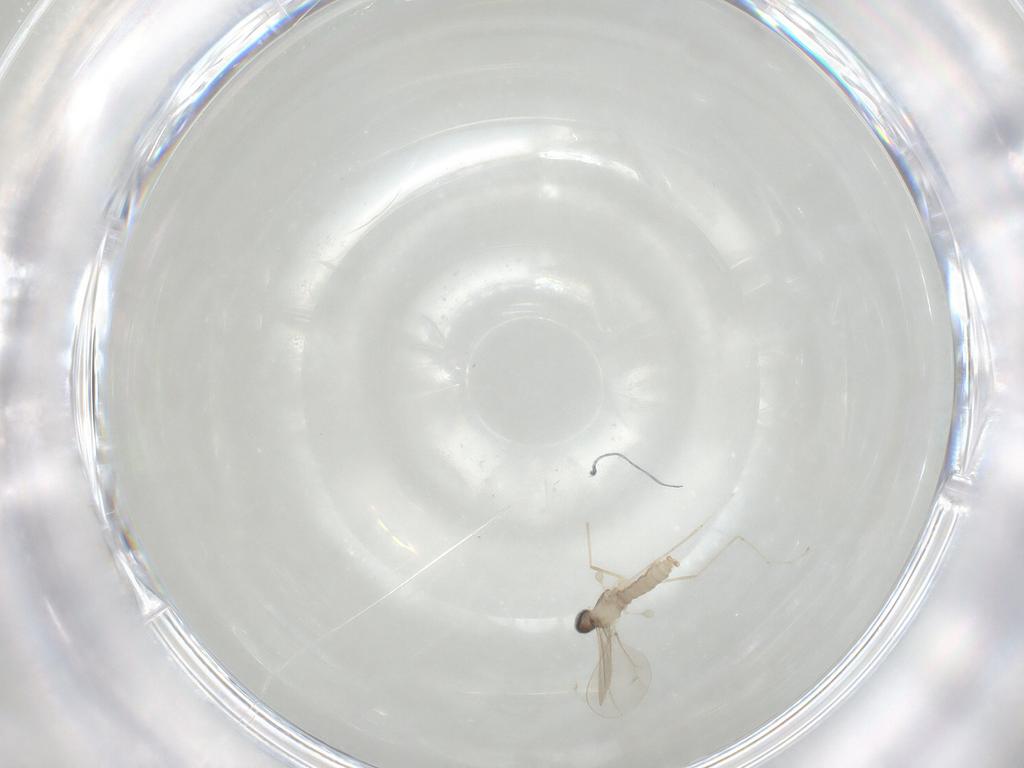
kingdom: Animalia
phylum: Arthropoda
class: Insecta
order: Diptera
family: Cecidomyiidae
